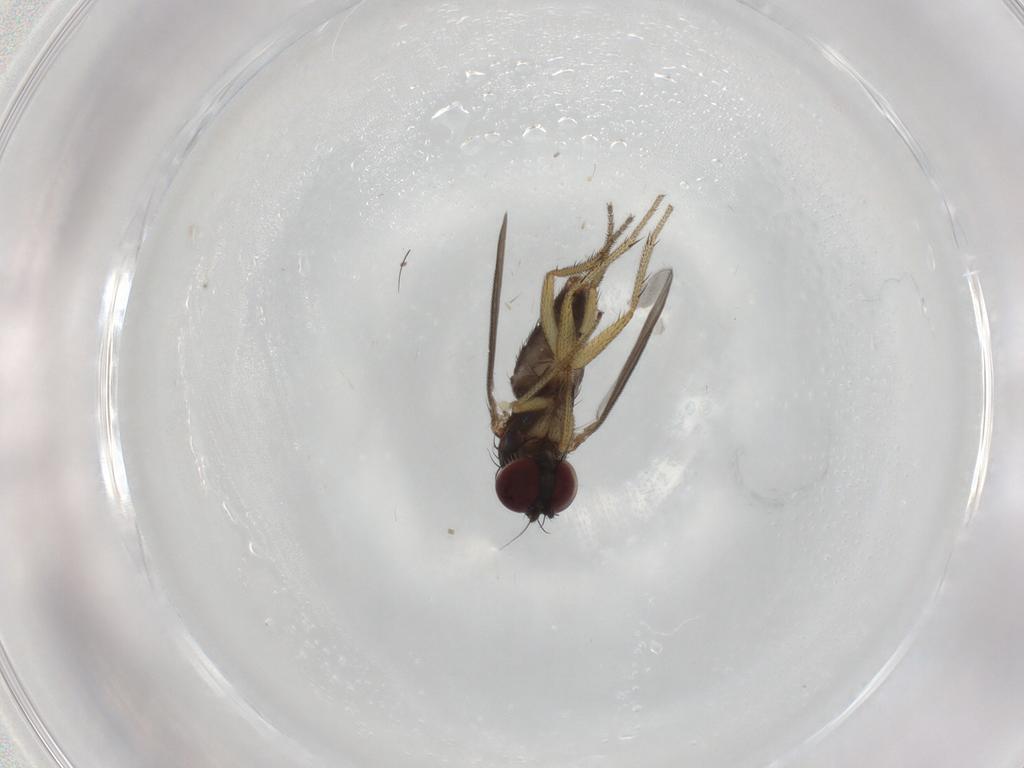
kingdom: Animalia
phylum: Arthropoda
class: Insecta
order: Diptera
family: Dolichopodidae
